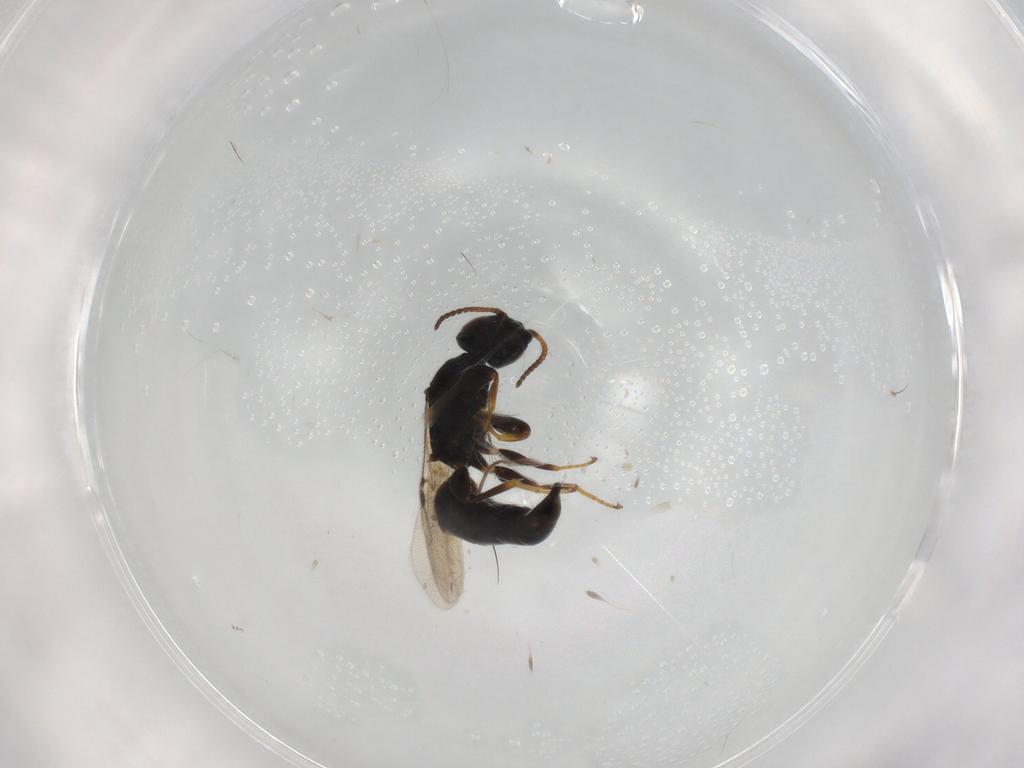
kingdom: Animalia
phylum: Arthropoda
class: Insecta
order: Hymenoptera
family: Bethylidae
